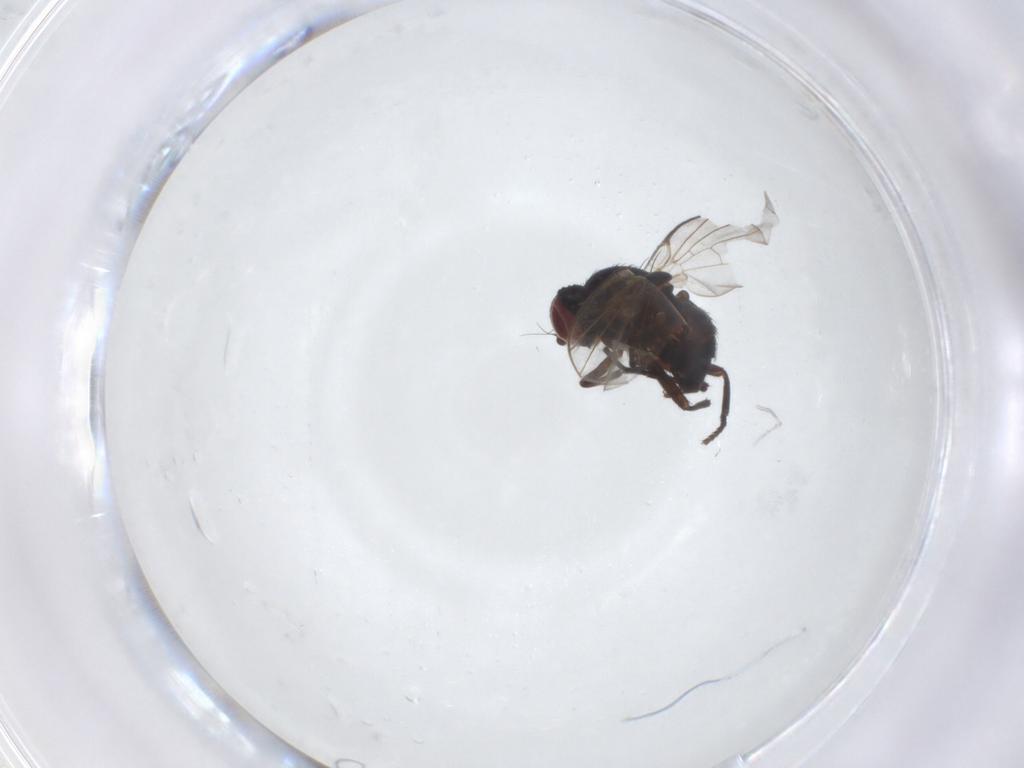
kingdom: Animalia
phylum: Arthropoda
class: Insecta
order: Diptera
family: Agromyzidae
